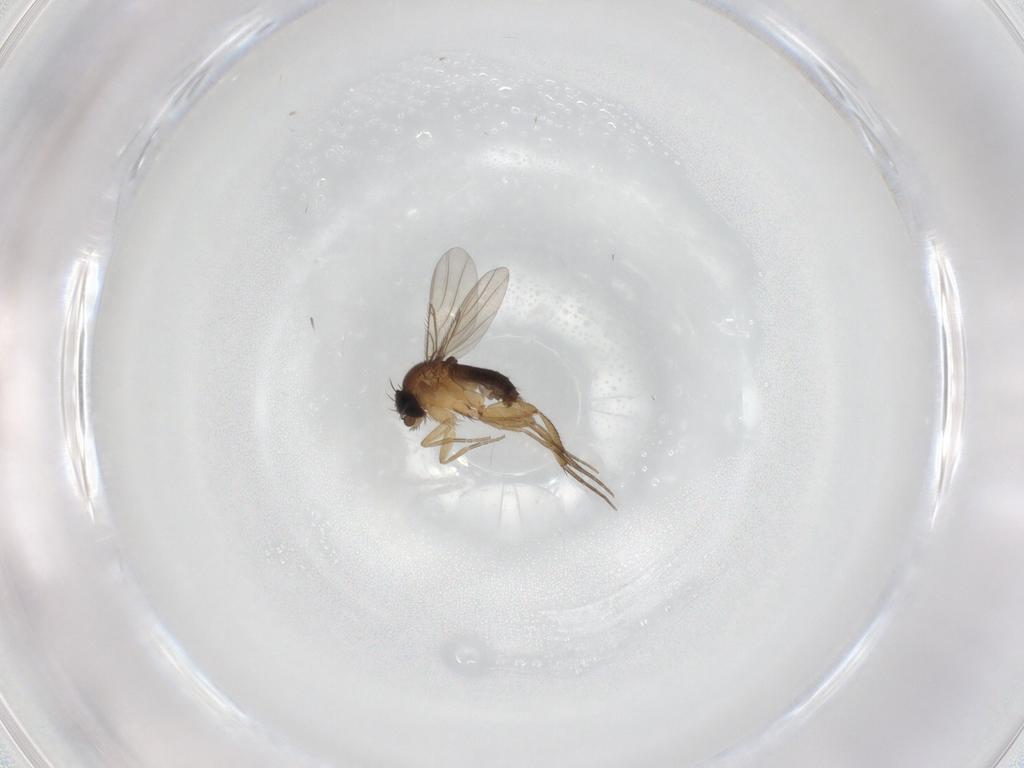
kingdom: Animalia
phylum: Arthropoda
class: Insecta
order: Diptera
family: Phoridae
